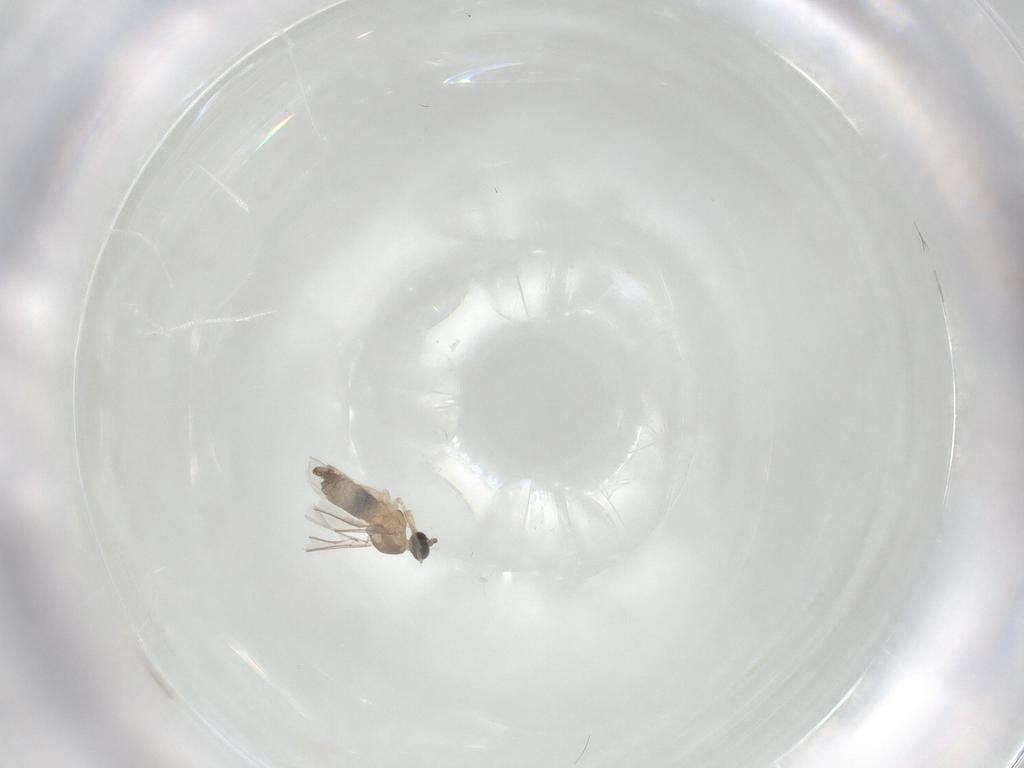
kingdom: Animalia
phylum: Arthropoda
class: Insecta
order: Diptera
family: Cecidomyiidae
